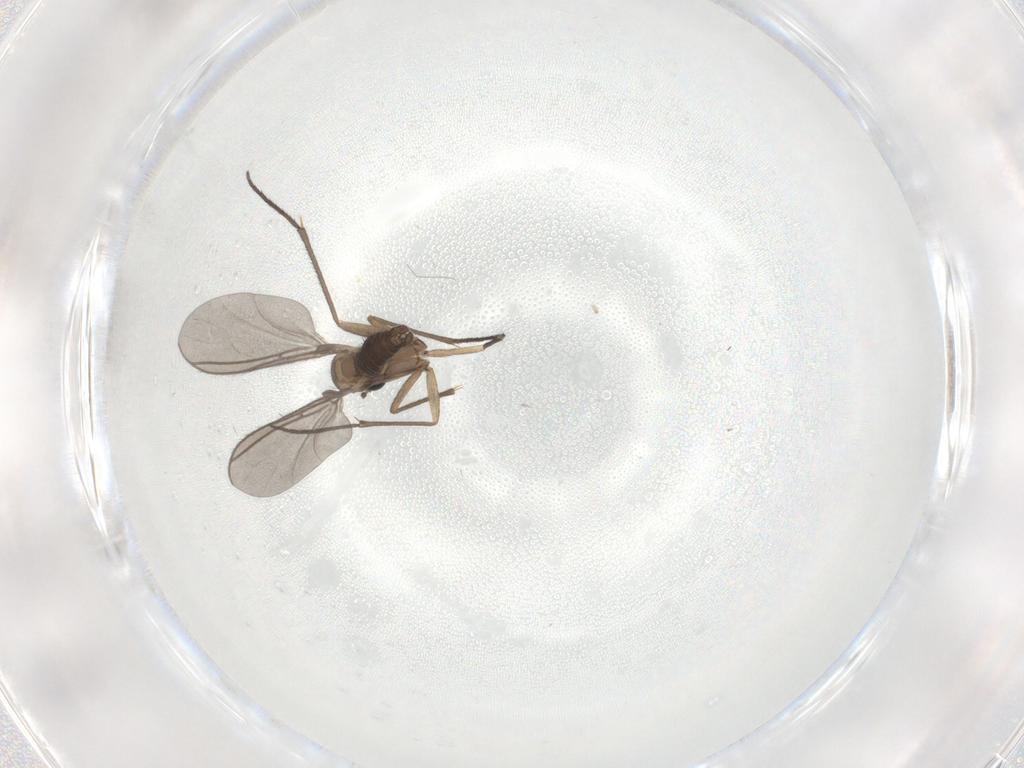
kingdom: Animalia
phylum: Arthropoda
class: Insecta
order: Diptera
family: Sciaridae
